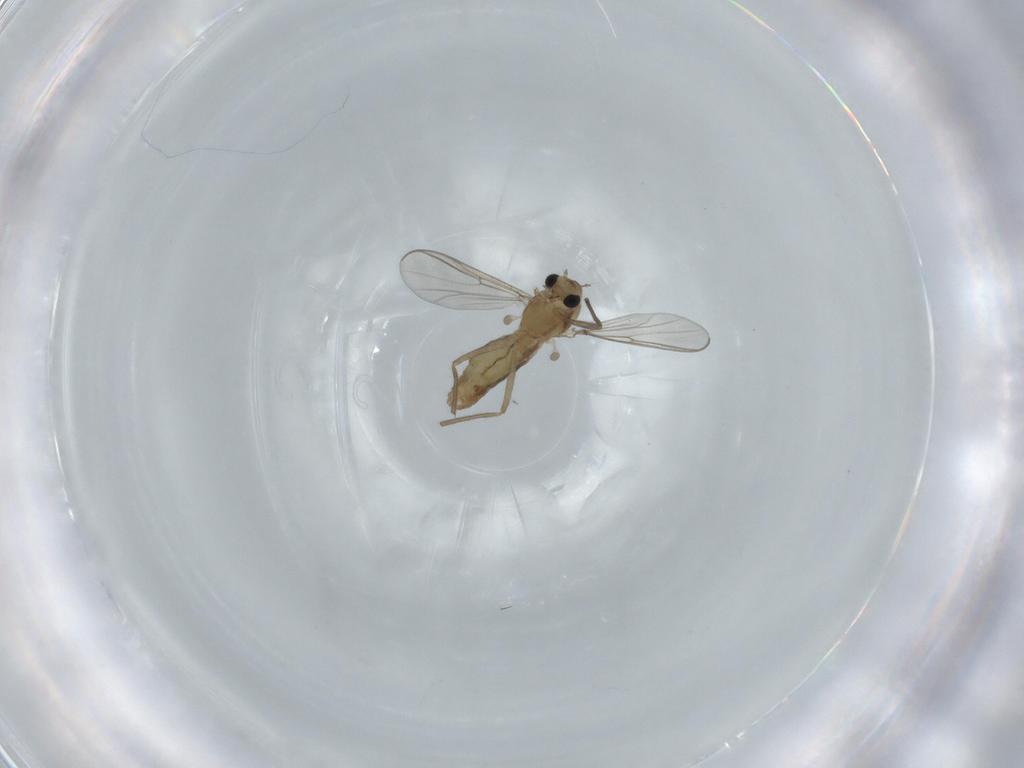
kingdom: Animalia
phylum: Arthropoda
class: Insecta
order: Diptera
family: Chironomidae
